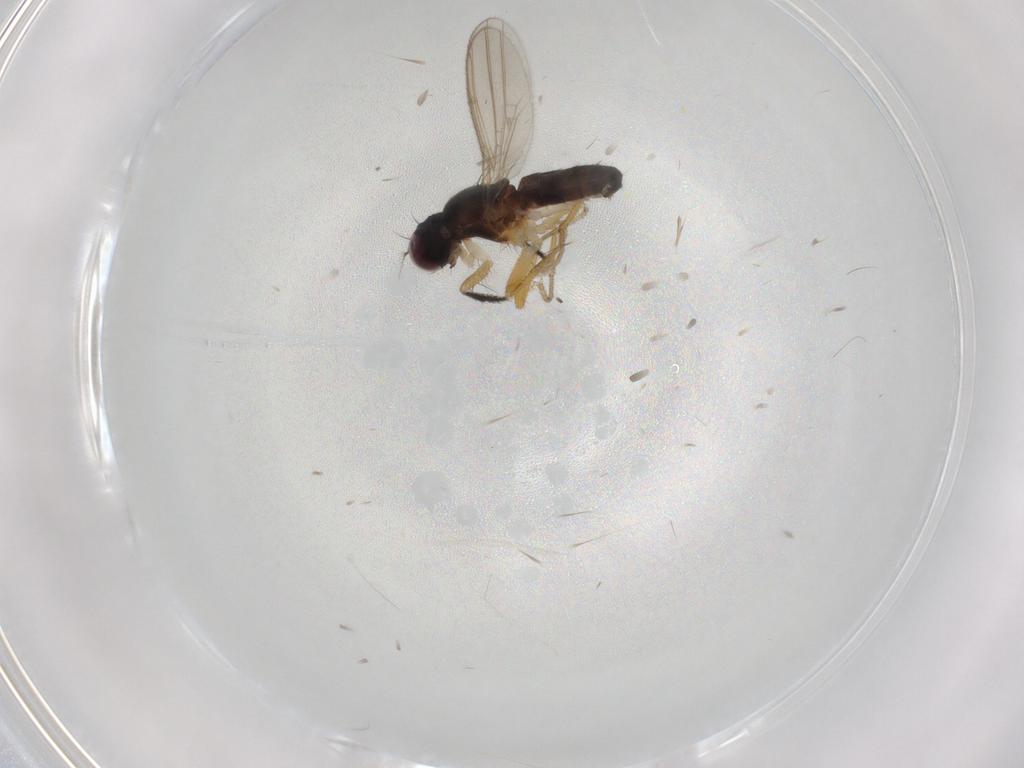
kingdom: Animalia
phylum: Arthropoda
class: Insecta
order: Diptera
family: Anthomyzidae
